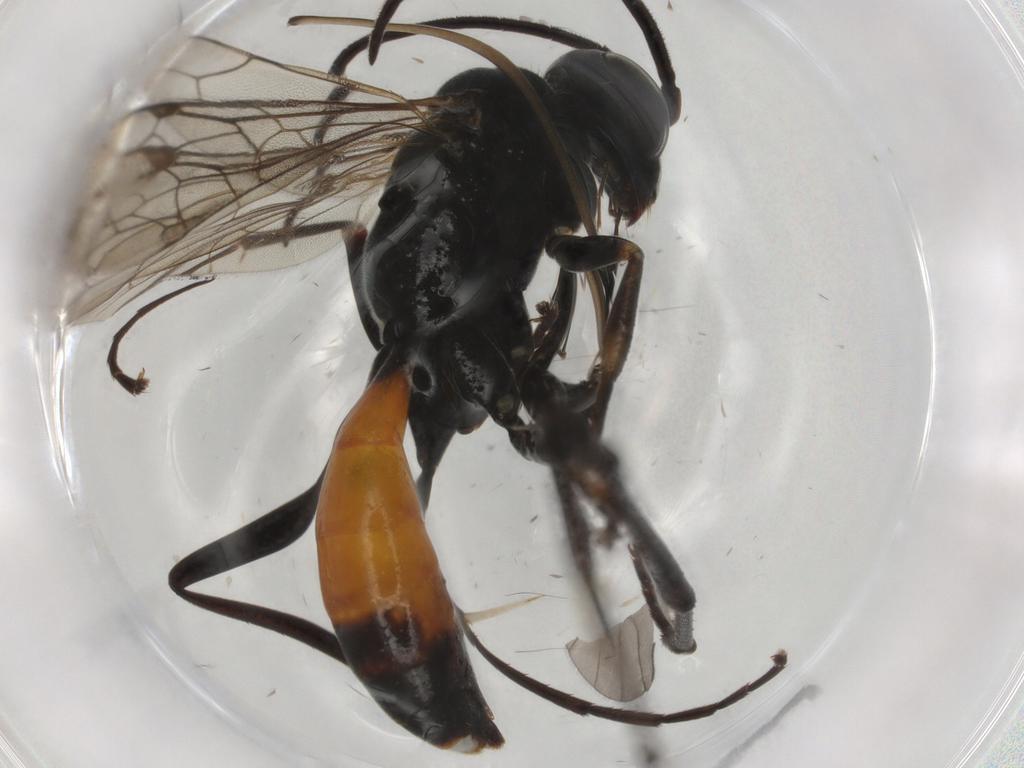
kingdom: Animalia
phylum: Arthropoda
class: Insecta
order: Hymenoptera
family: Pompilidae
